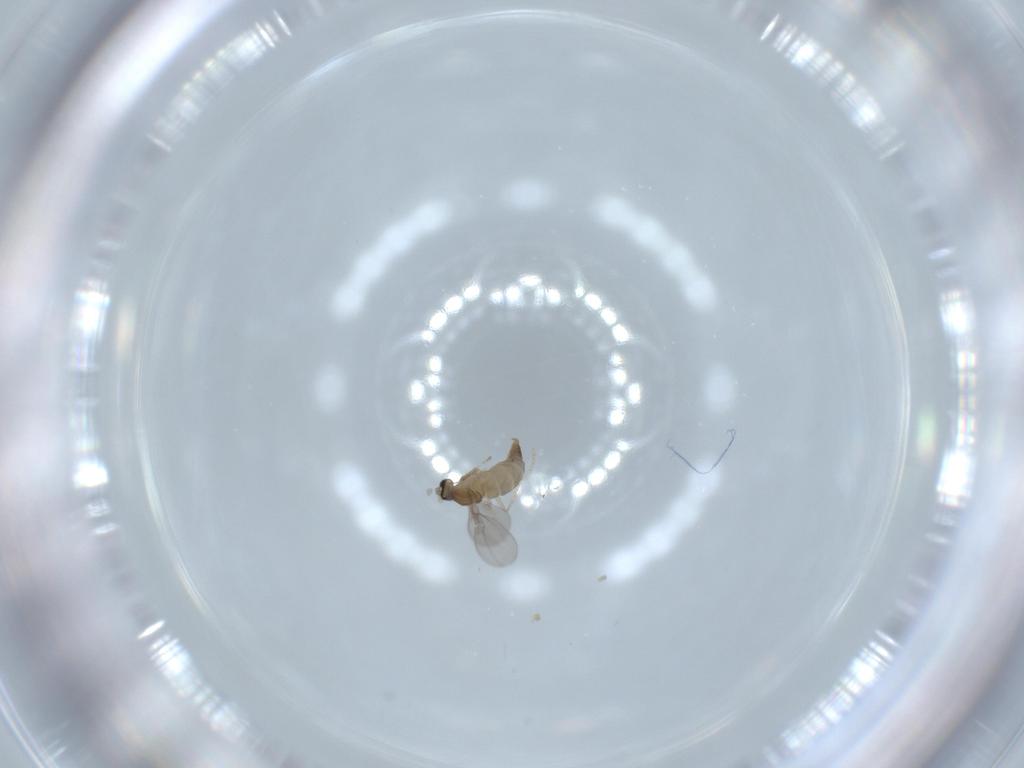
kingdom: Animalia
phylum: Arthropoda
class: Insecta
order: Diptera
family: Cecidomyiidae
